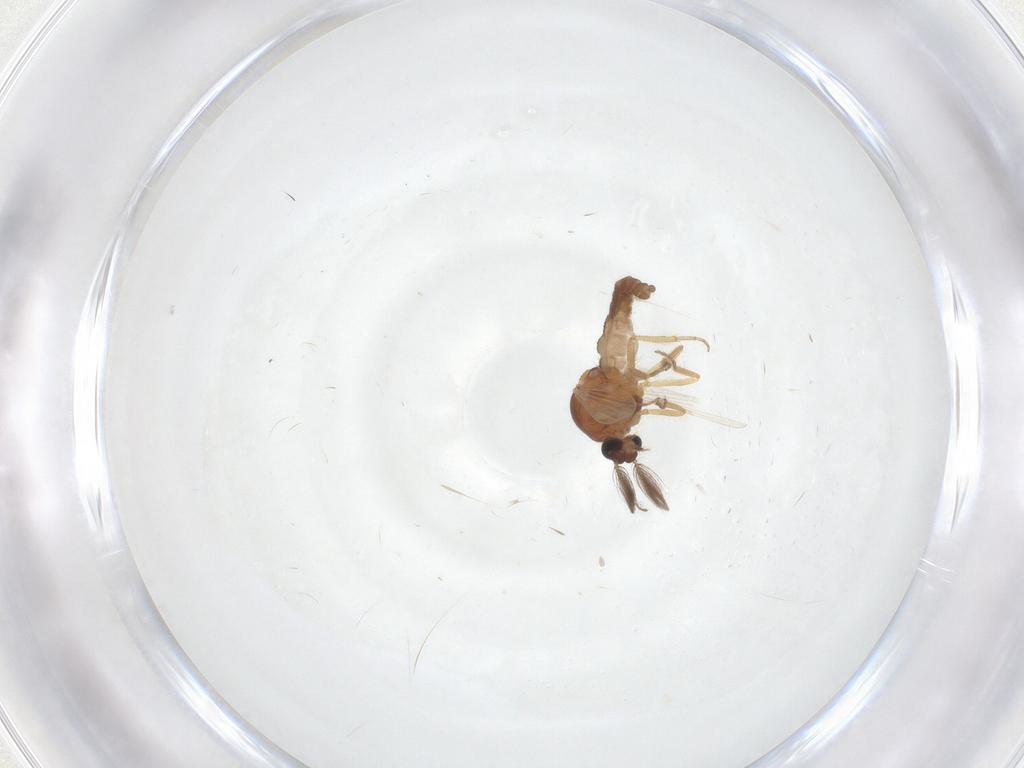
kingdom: Animalia
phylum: Arthropoda
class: Insecta
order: Diptera
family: Ceratopogonidae
